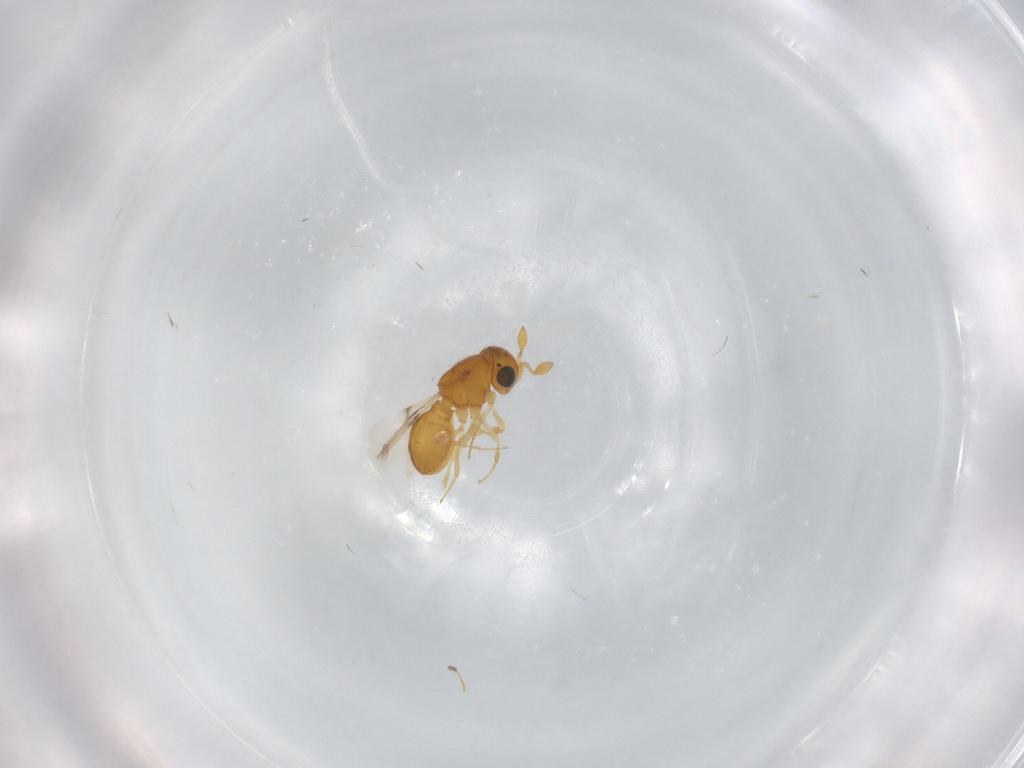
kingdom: Animalia
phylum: Arthropoda
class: Insecta
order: Hymenoptera
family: Scelionidae
